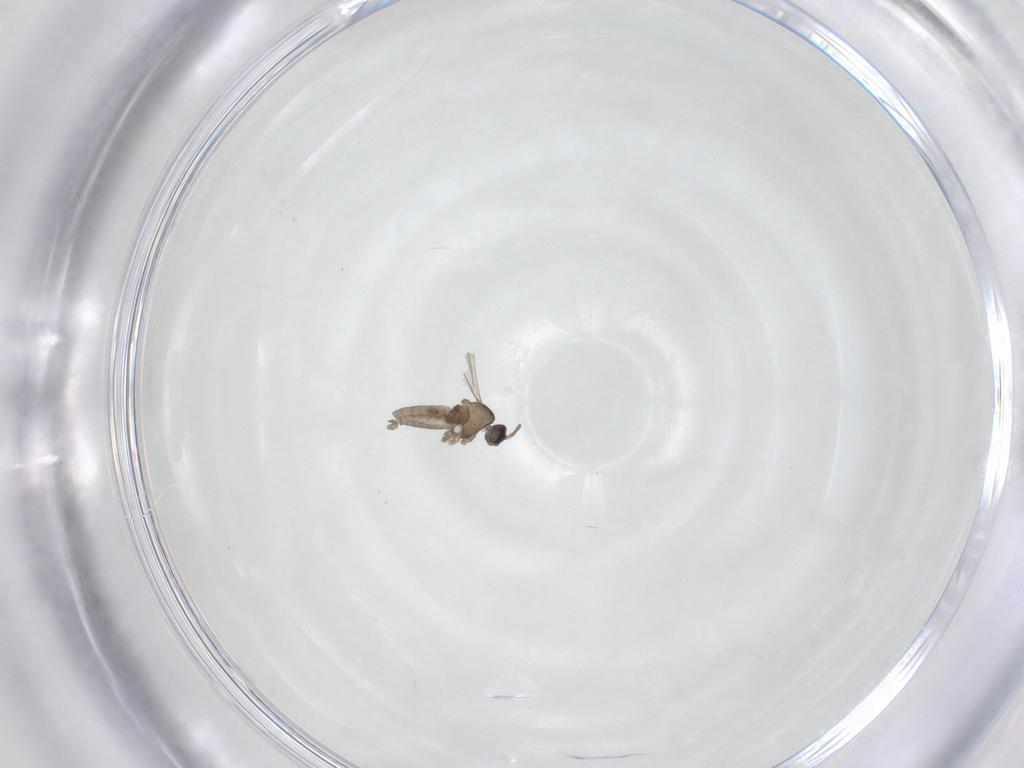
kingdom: Animalia
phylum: Arthropoda
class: Insecta
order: Diptera
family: Cecidomyiidae
